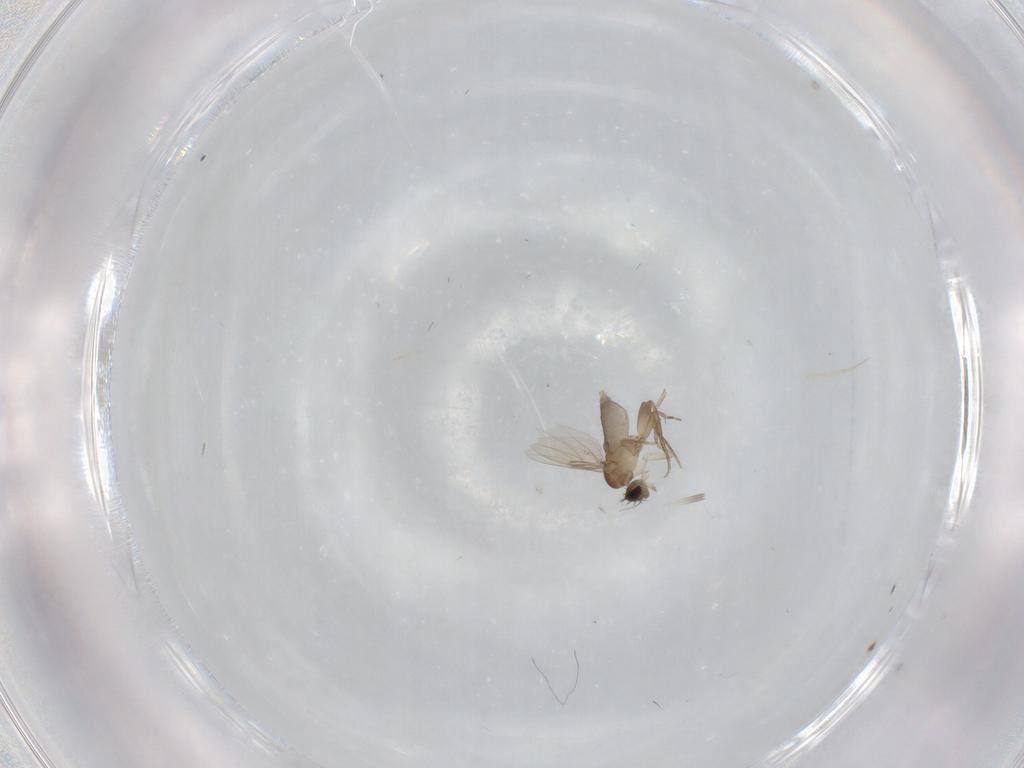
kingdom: Animalia
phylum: Arthropoda
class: Insecta
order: Diptera
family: Phoridae
